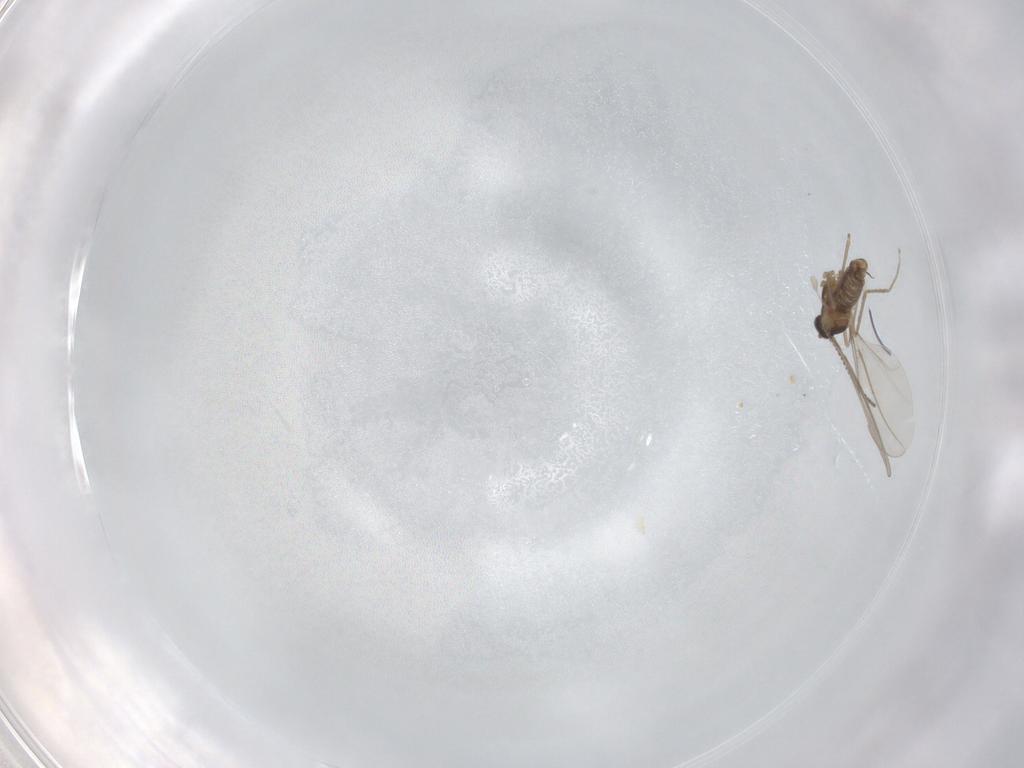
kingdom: Animalia
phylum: Arthropoda
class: Insecta
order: Diptera
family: Cecidomyiidae
